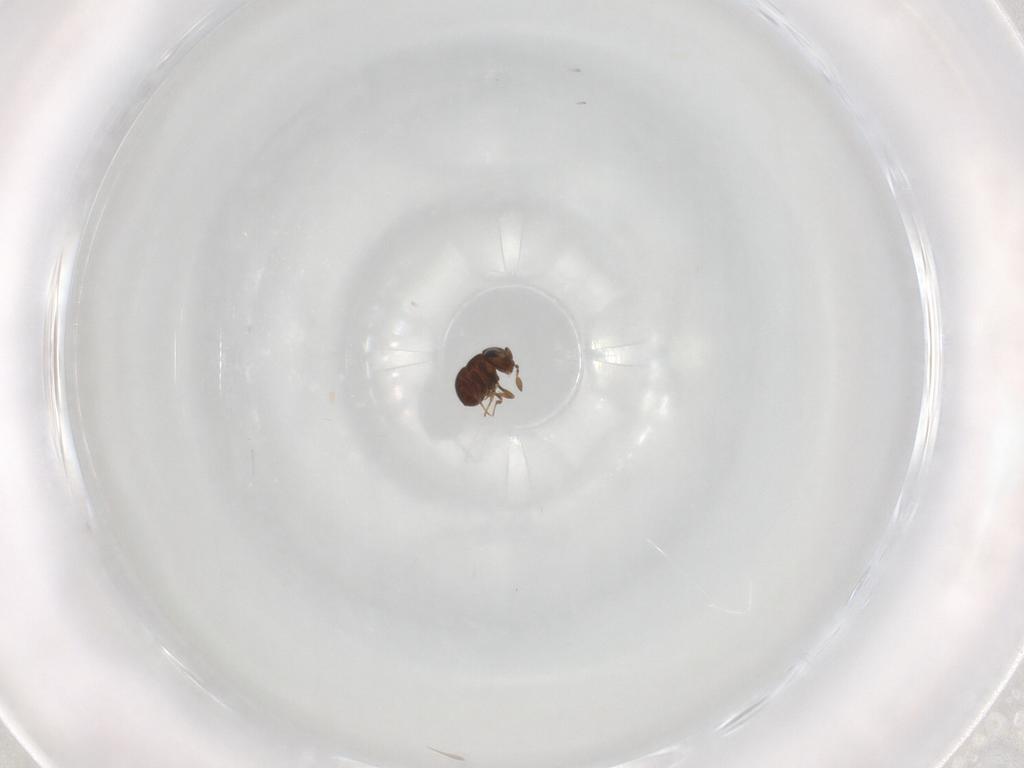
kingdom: Animalia
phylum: Arthropoda
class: Insecta
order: Hymenoptera
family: Scelionidae
